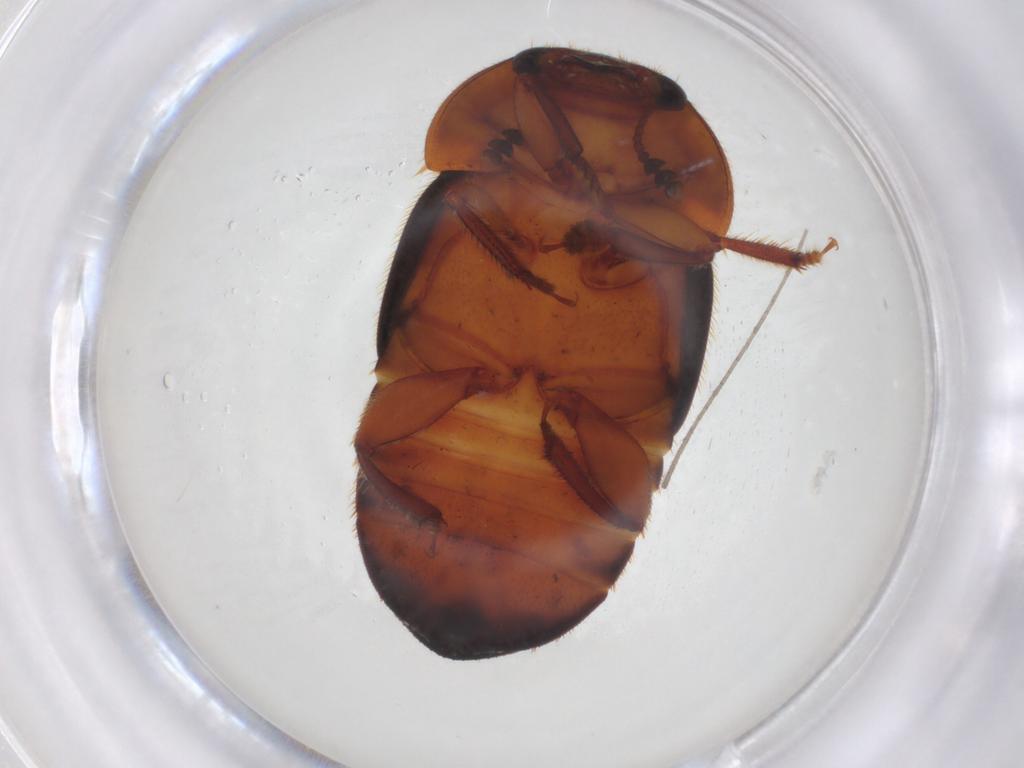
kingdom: Animalia
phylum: Arthropoda
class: Insecta
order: Coleoptera
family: Nitidulidae
